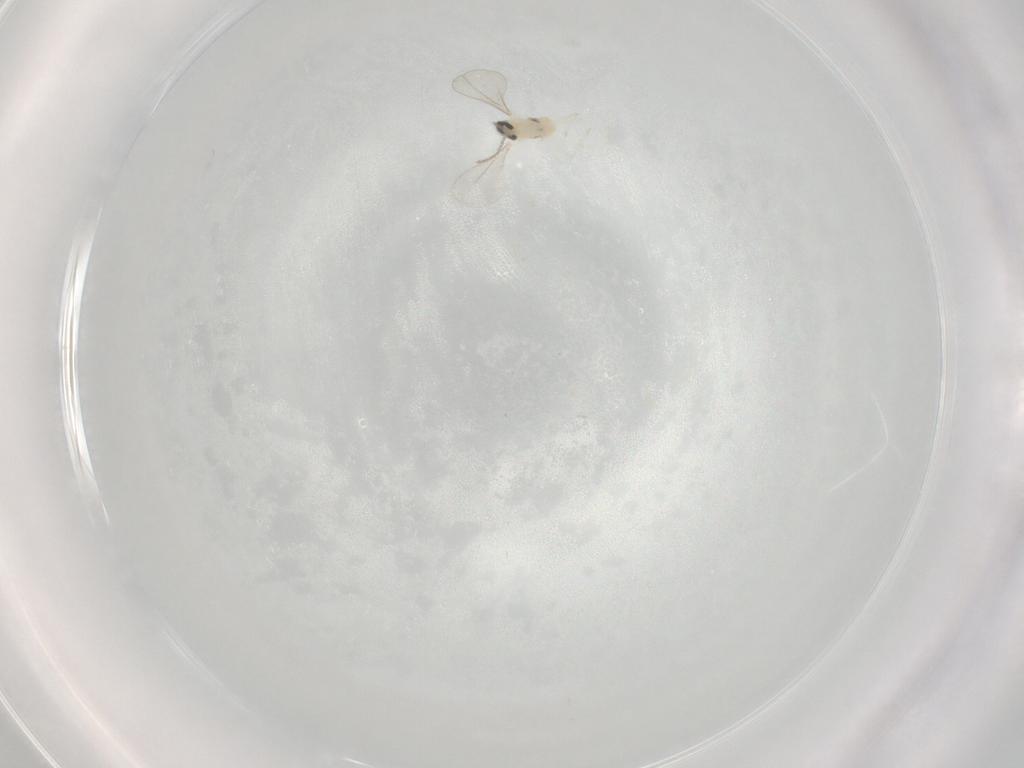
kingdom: Animalia
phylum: Arthropoda
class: Insecta
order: Diptera
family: Cecidomyiidae
